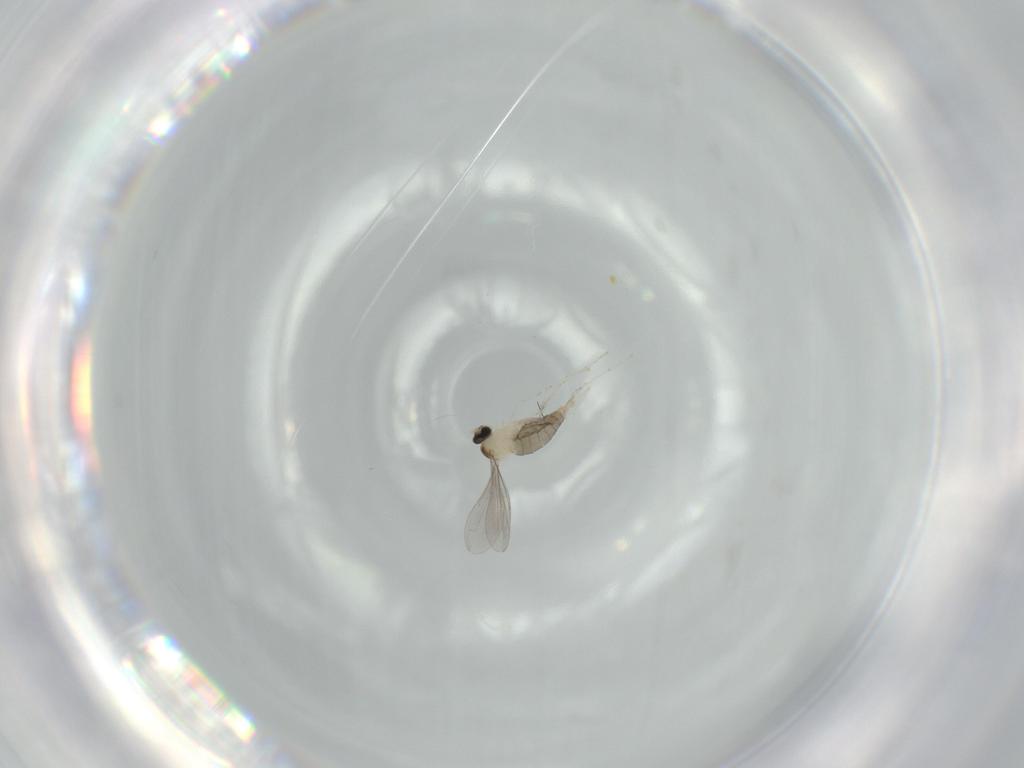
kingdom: Animalia
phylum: Arthropoda
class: Insecta
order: Diptera
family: Cecidomyiidae
